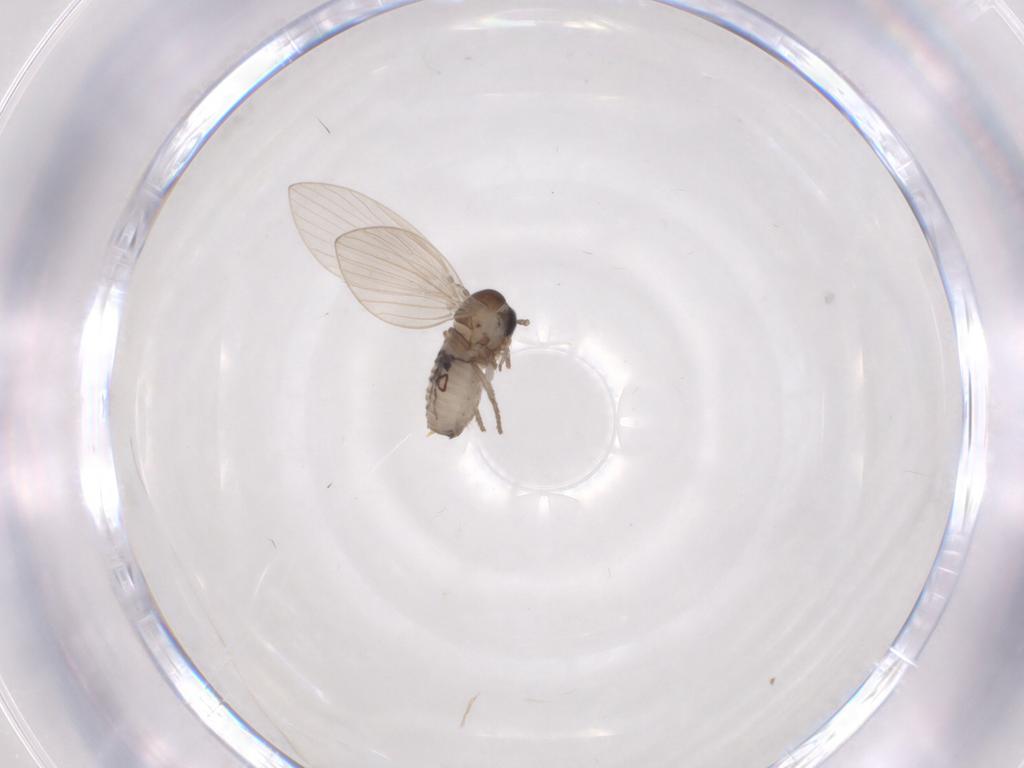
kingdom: Animalia
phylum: Arthropoda
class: Insecta
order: Diptera
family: Psychodidae
